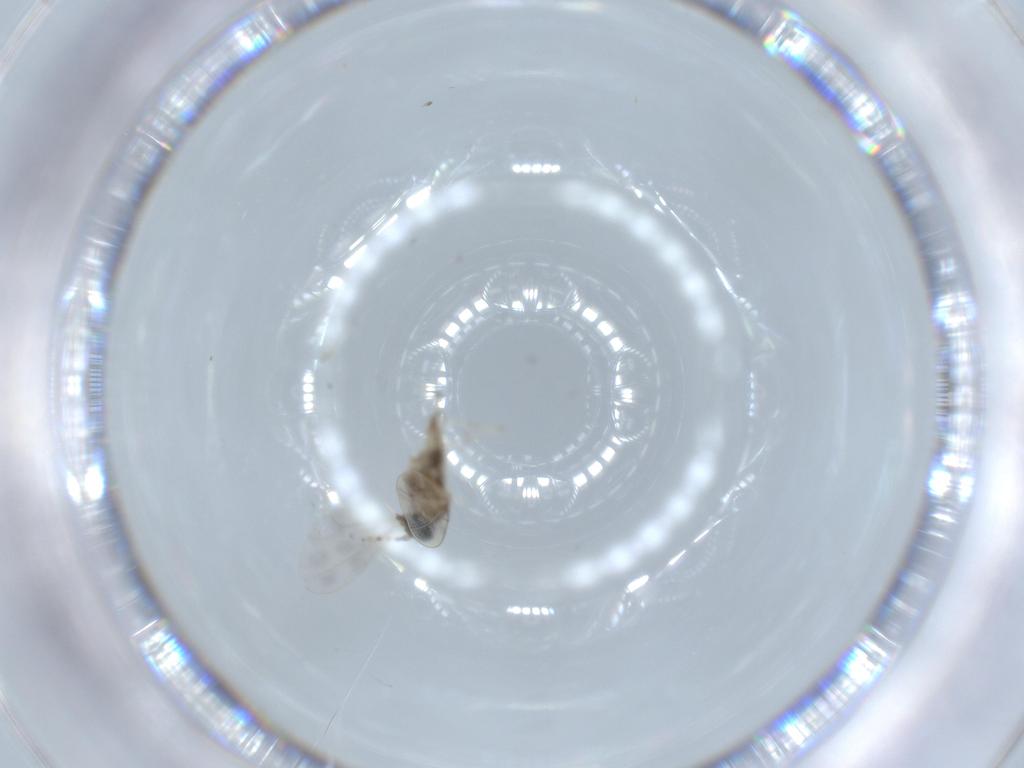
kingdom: Animalia
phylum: Arthropoda
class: Insecta
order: Diptera
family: Cecidomyiidae
